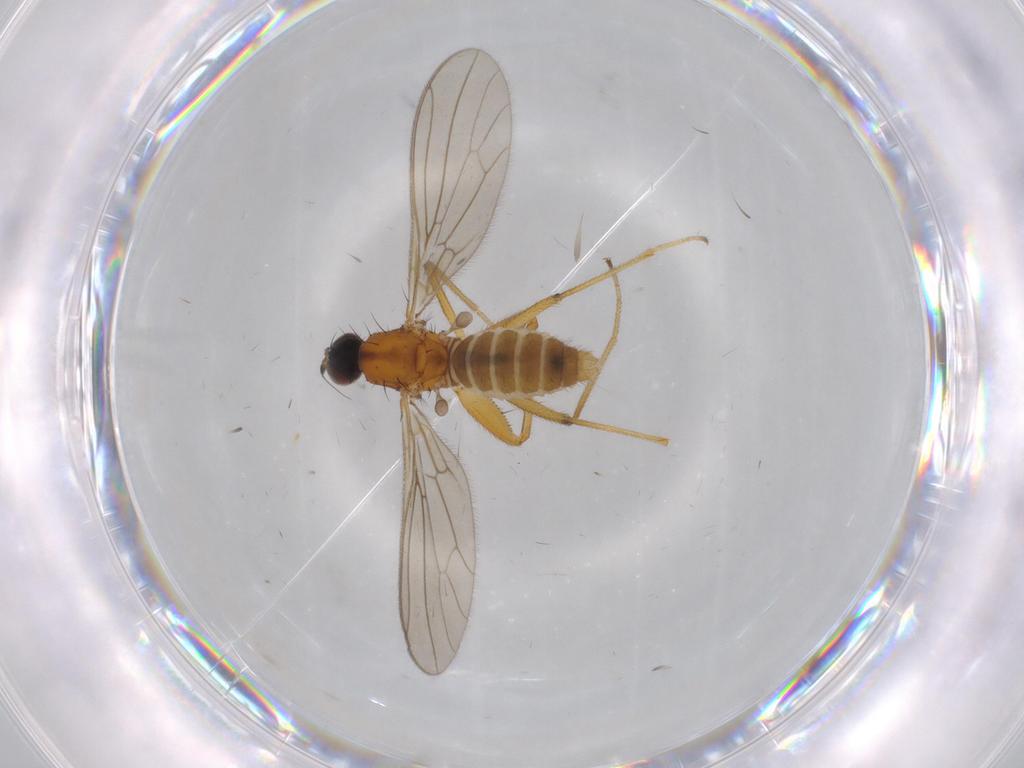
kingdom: Animalia
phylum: Arthropoda
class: Insecta
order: Diptera
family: Empididae
